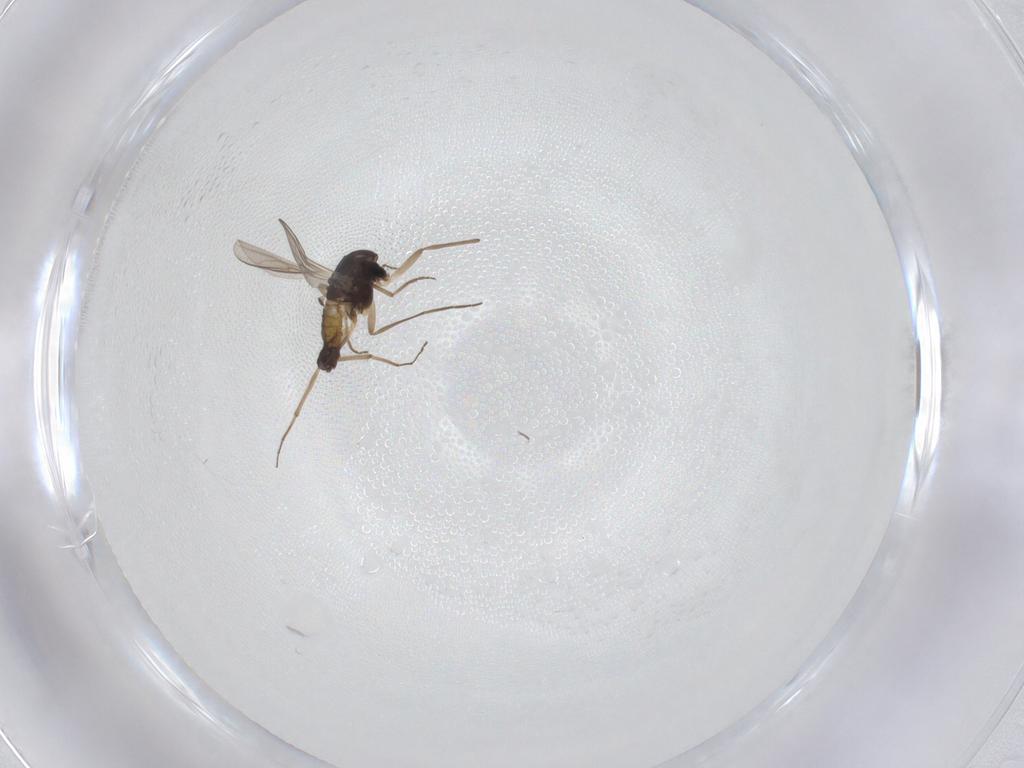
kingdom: Animalia
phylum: Arthropoda
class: Insecta
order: Diptera
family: Chironomidae
